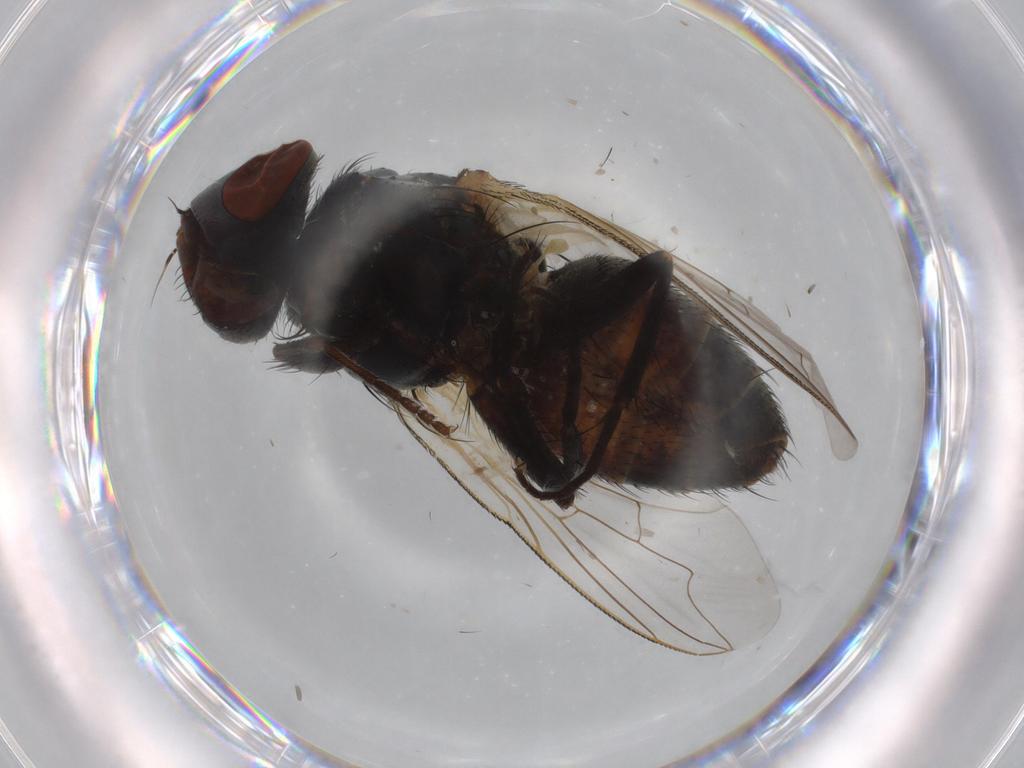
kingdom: Animalia
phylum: Arthropoda
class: Insecta
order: Diptera
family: Sarcophagidae
